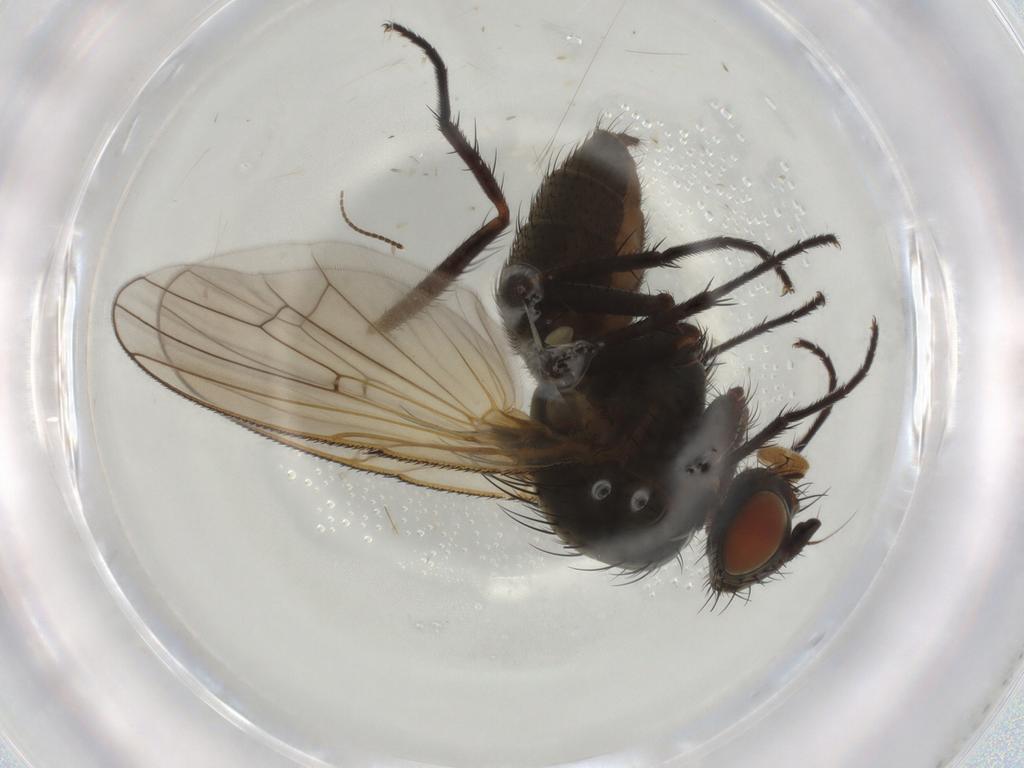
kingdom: Animalia
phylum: Arthropoda
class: Insecta
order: Diptera
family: Anthomyiidae
